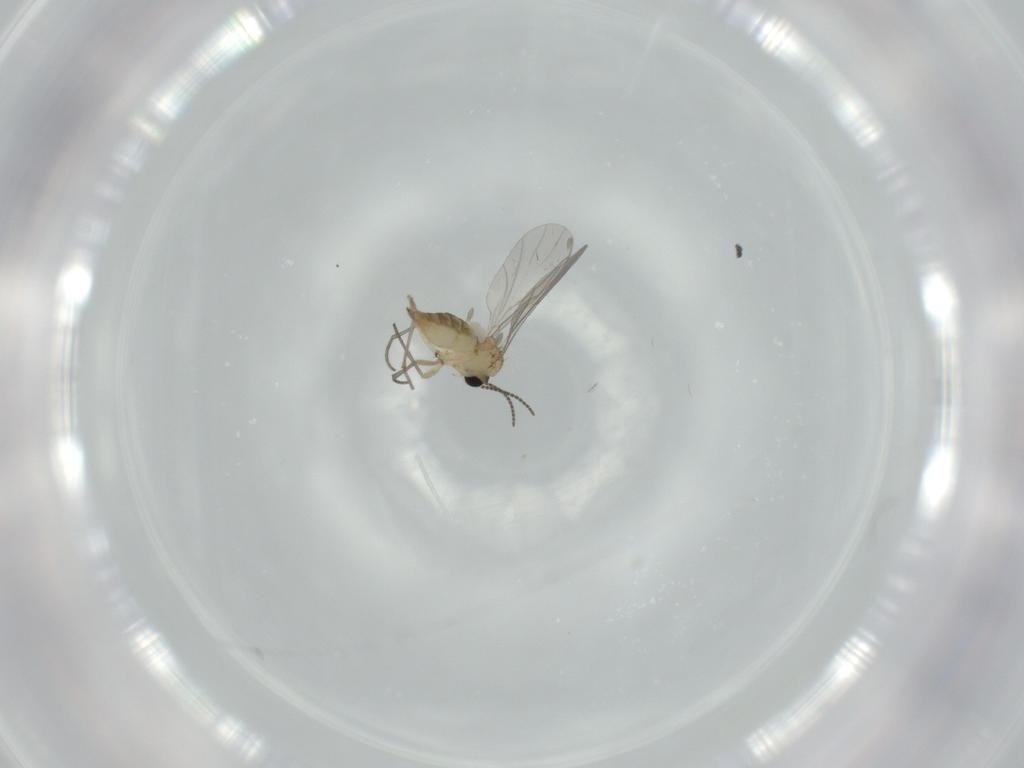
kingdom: Animalia
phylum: Arthropoda
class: Insecta
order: Diptera
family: Sciaridae
